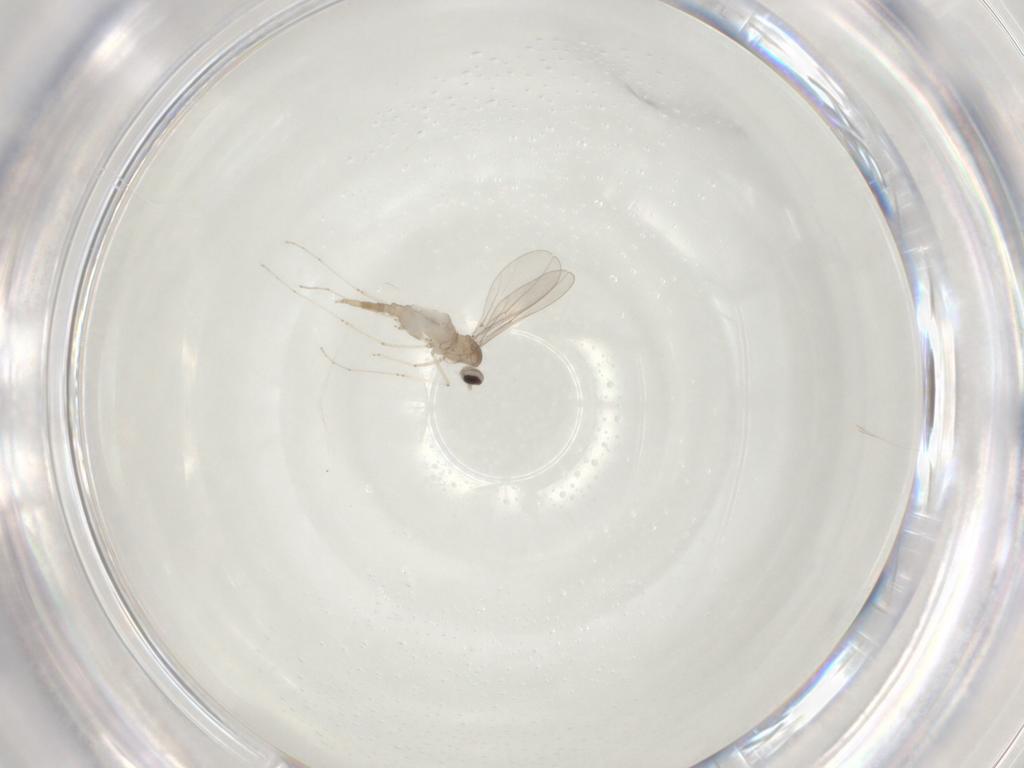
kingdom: Animalia
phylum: Arthropoda
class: Insecta
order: Diptera
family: Cecidomyiidae
